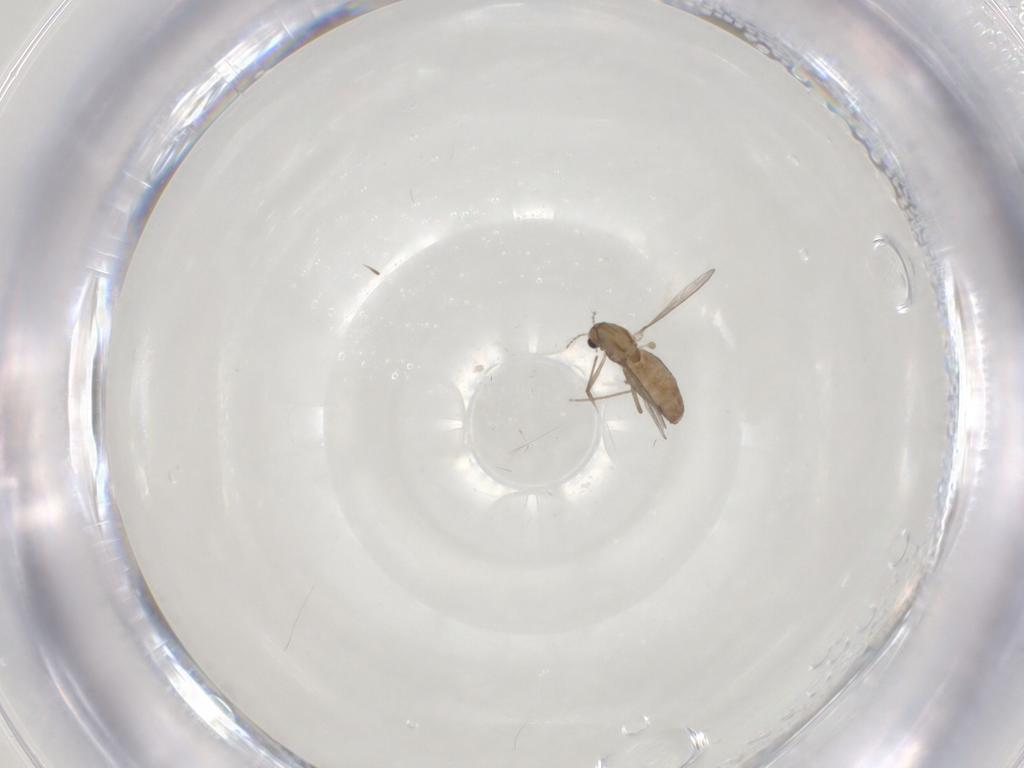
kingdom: Animalia
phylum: Arthropoda
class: Insecta
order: Diptera
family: Chironomidae
